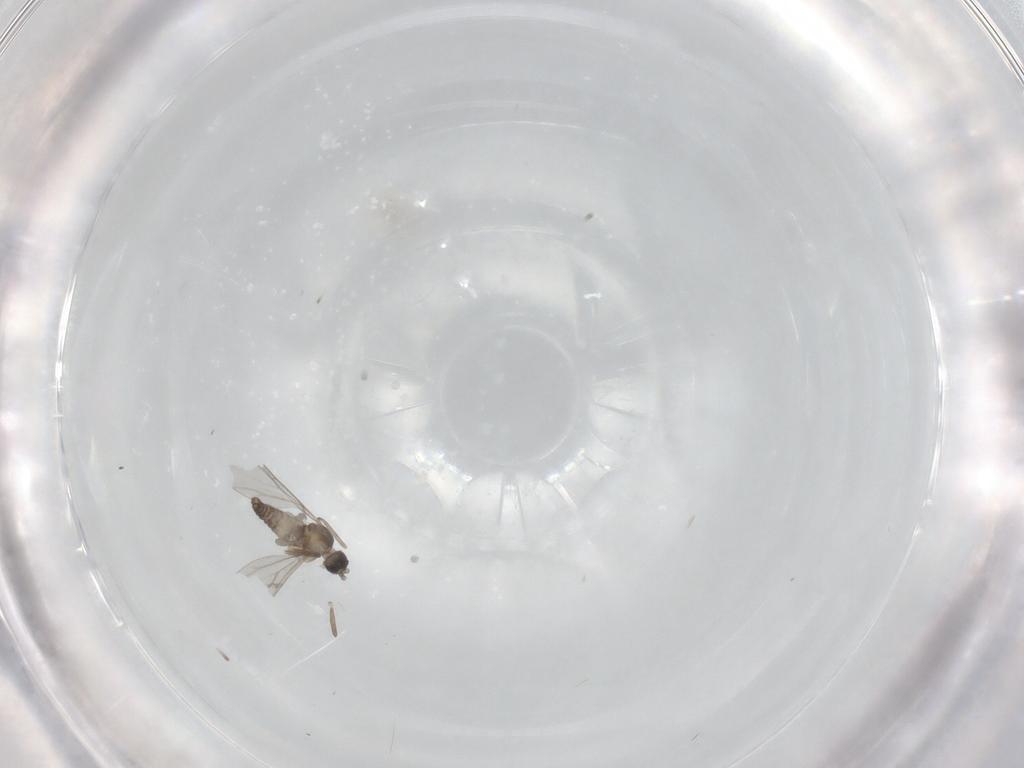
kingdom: Animalia
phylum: Arthropoda
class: Insecta
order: Diptera
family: Cecidomyiidae
